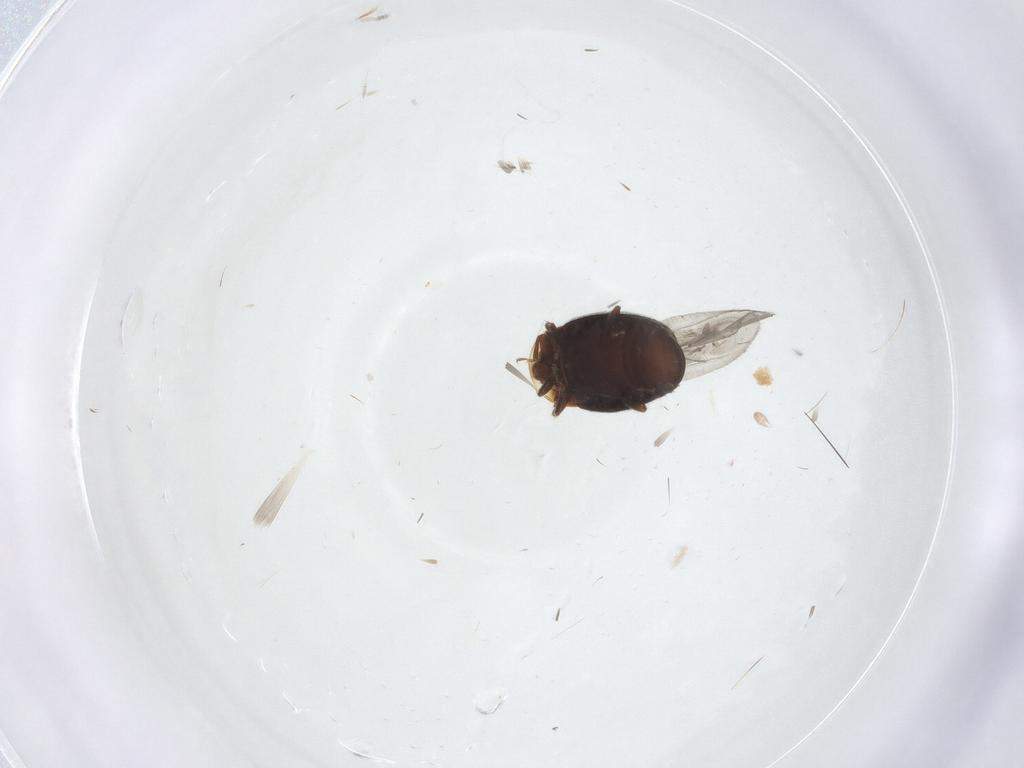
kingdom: Animalia
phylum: Arthropoda
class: Insecta
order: Coleoptera
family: Corylophidae
